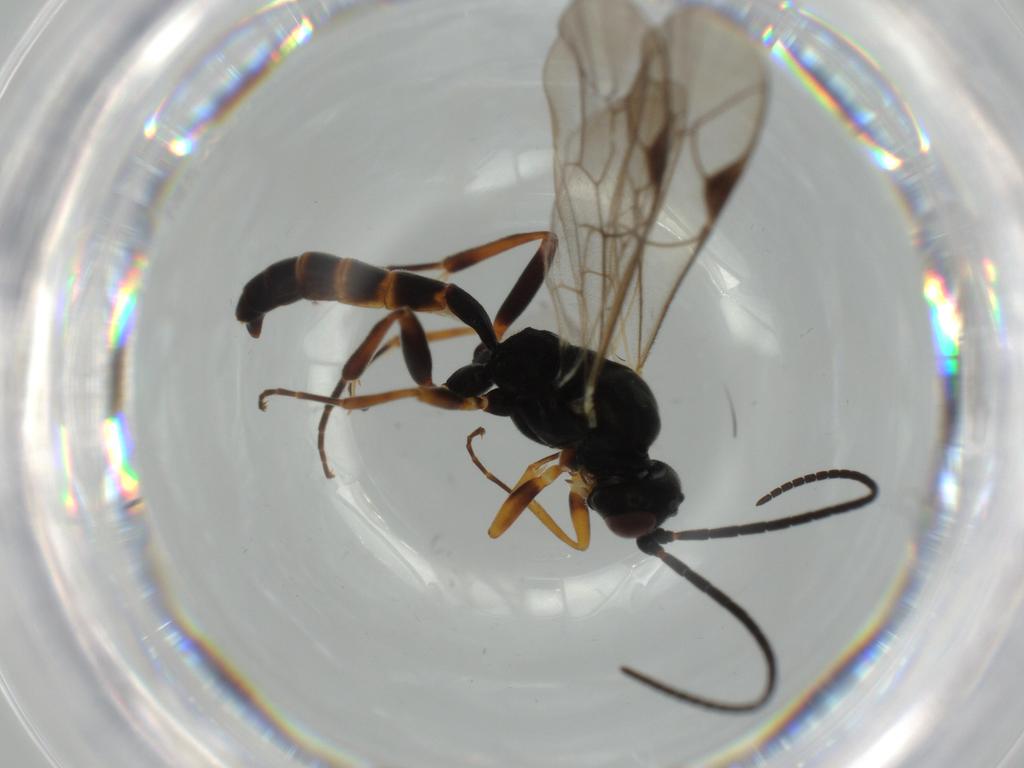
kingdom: Animalia
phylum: Arthropoda
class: Insecta
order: Hymenoptera
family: Ichneumonidae
